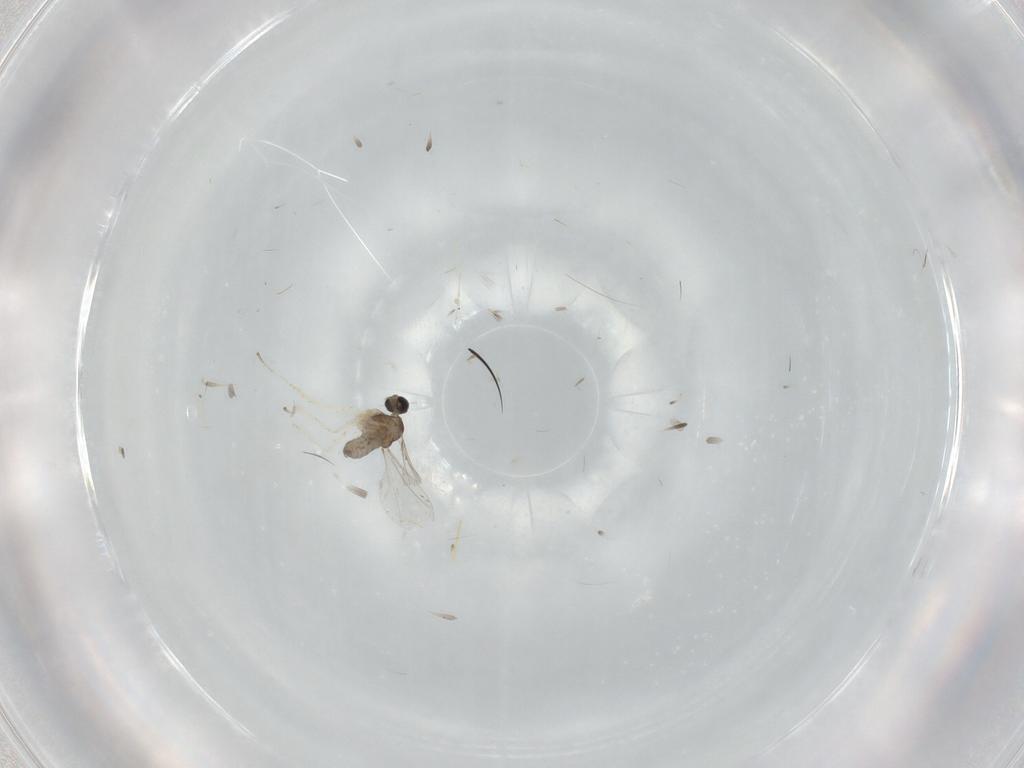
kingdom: Animalia
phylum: Arthropoda
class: Insecta
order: Diptera
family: Cecidomyiidae
